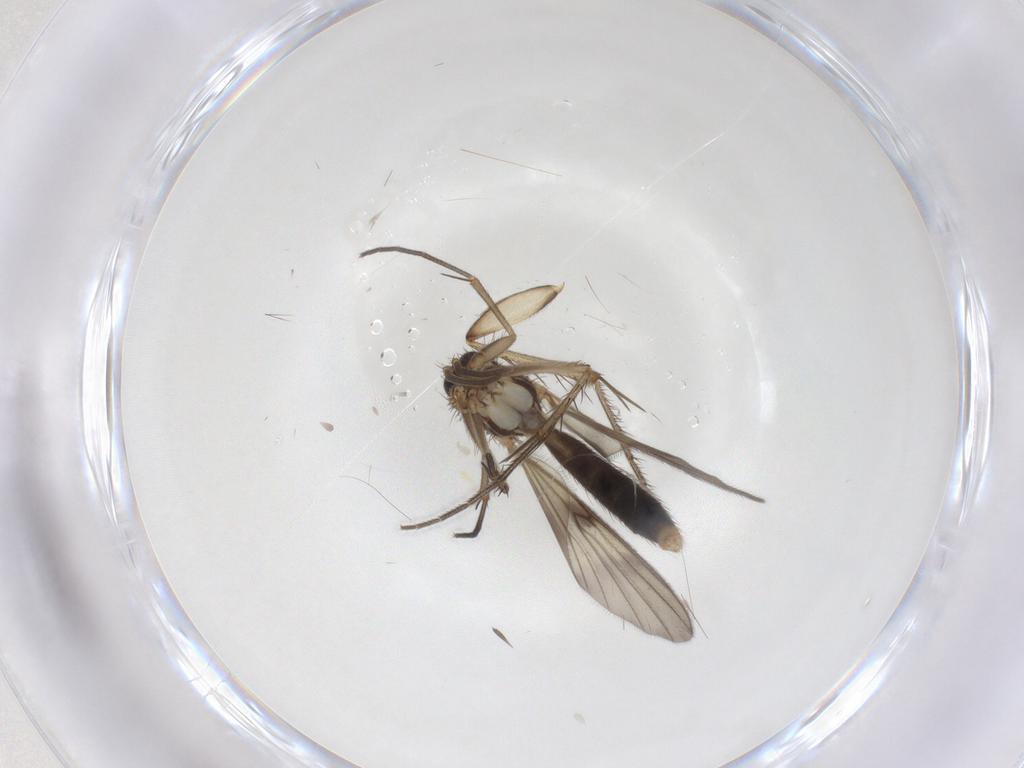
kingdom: Animalia
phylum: Arthropoda
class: Insecta
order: Diptera
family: Mycetophilidae
